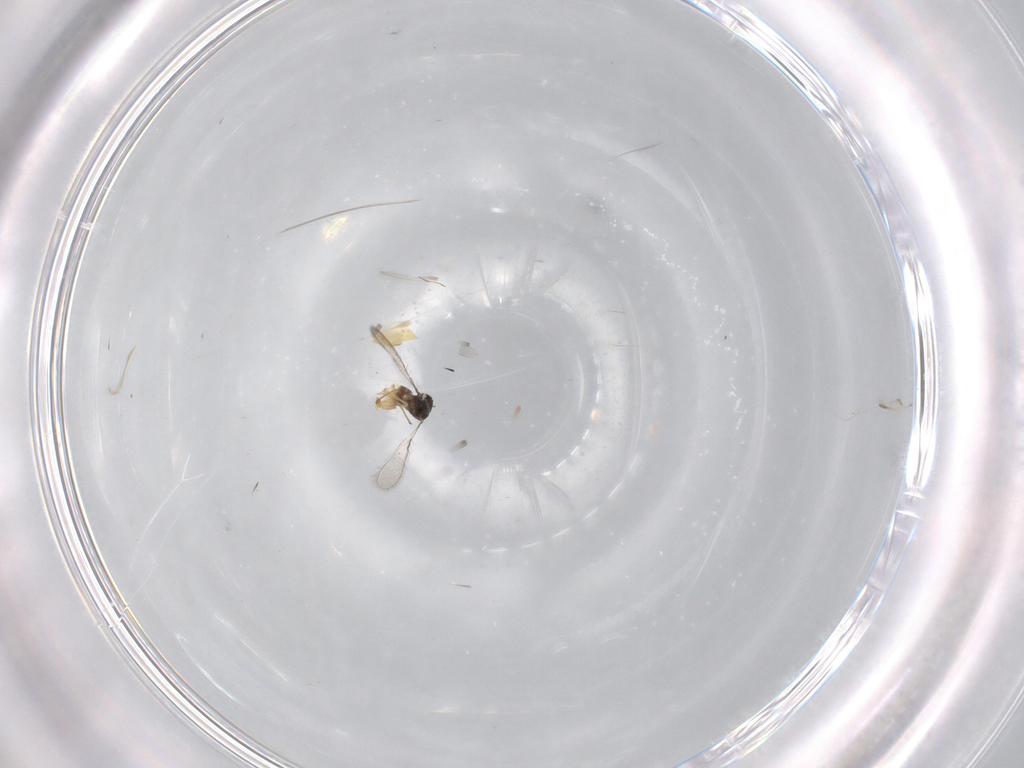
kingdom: Animalia
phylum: Arthropoda
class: Insecta
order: Hymenoptera
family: Mymaridae
